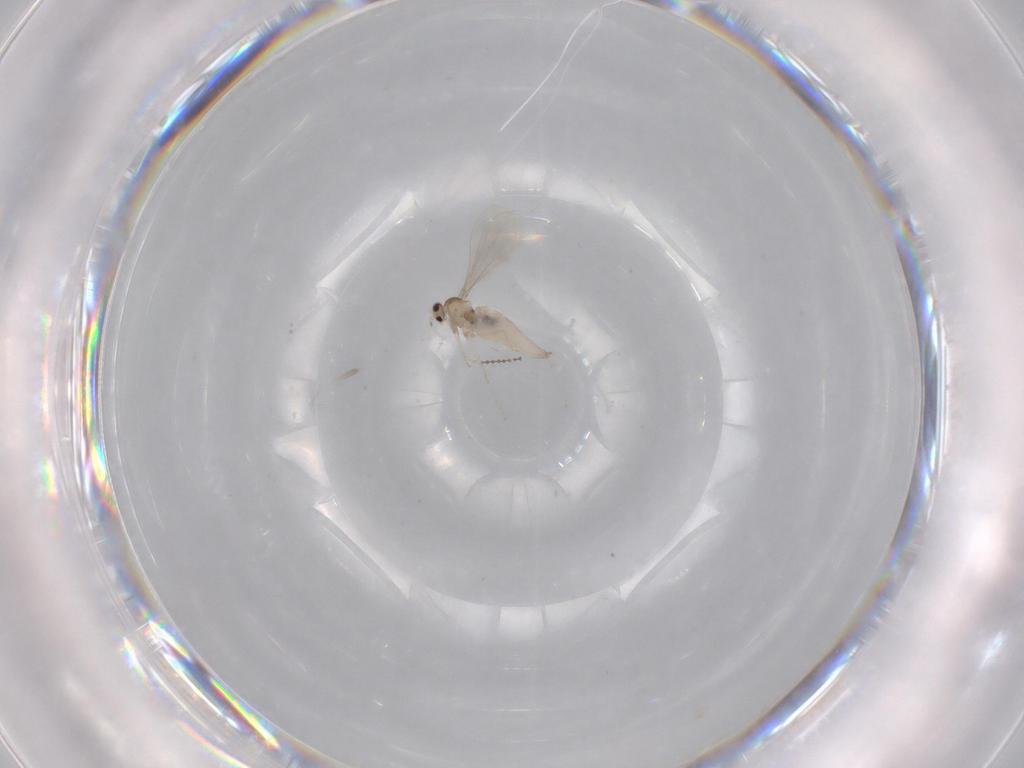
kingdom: Animalia
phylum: Arthropoda
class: Insecta
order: Diptera
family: Cecidomyiidae
